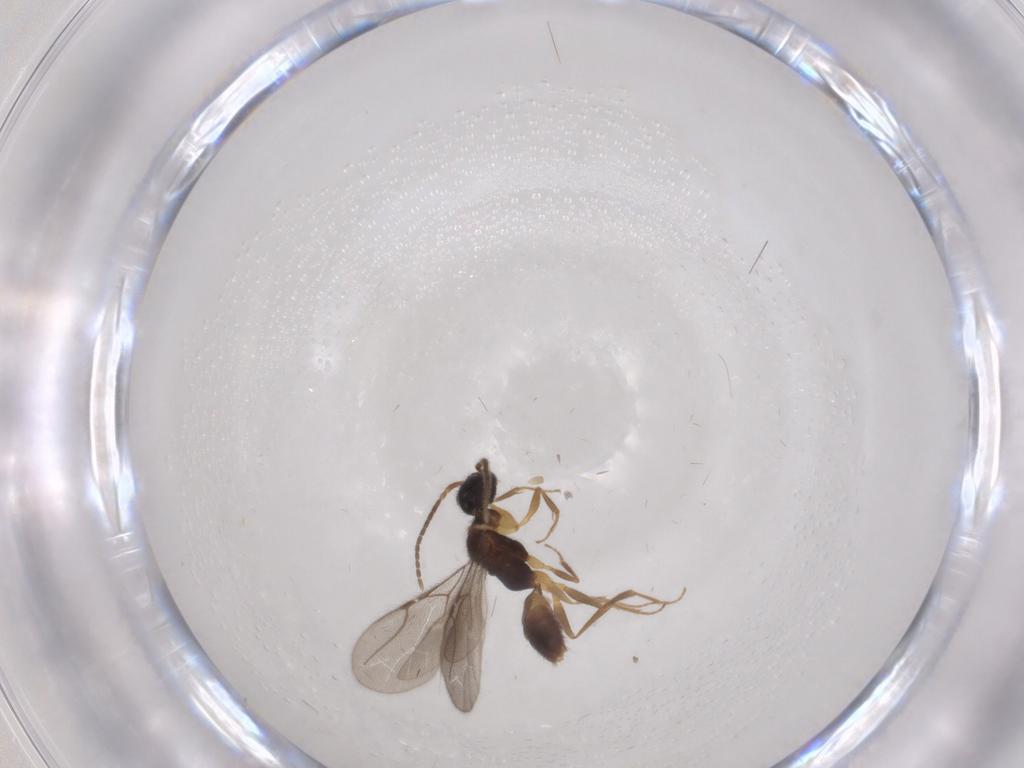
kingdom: Animalia
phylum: Arthropoda
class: Insecta
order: Hymenoptera
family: Bethylidae
